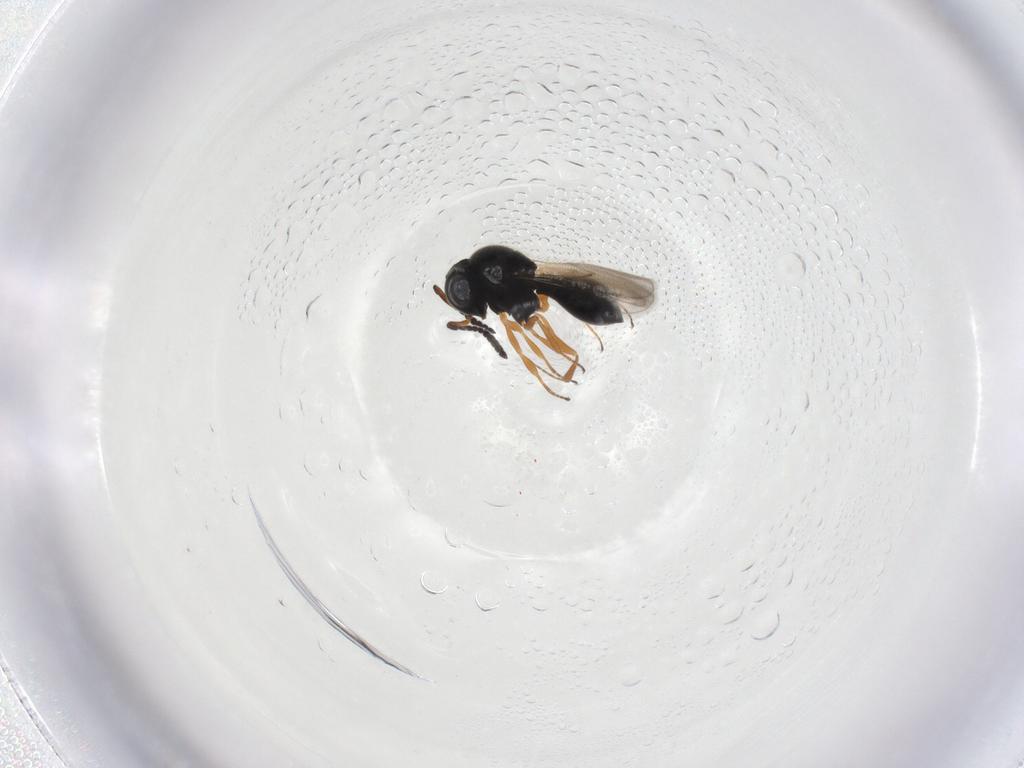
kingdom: Animalia
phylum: Arthropoda
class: Insecta
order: Hymenoptera
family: Scelionidae
